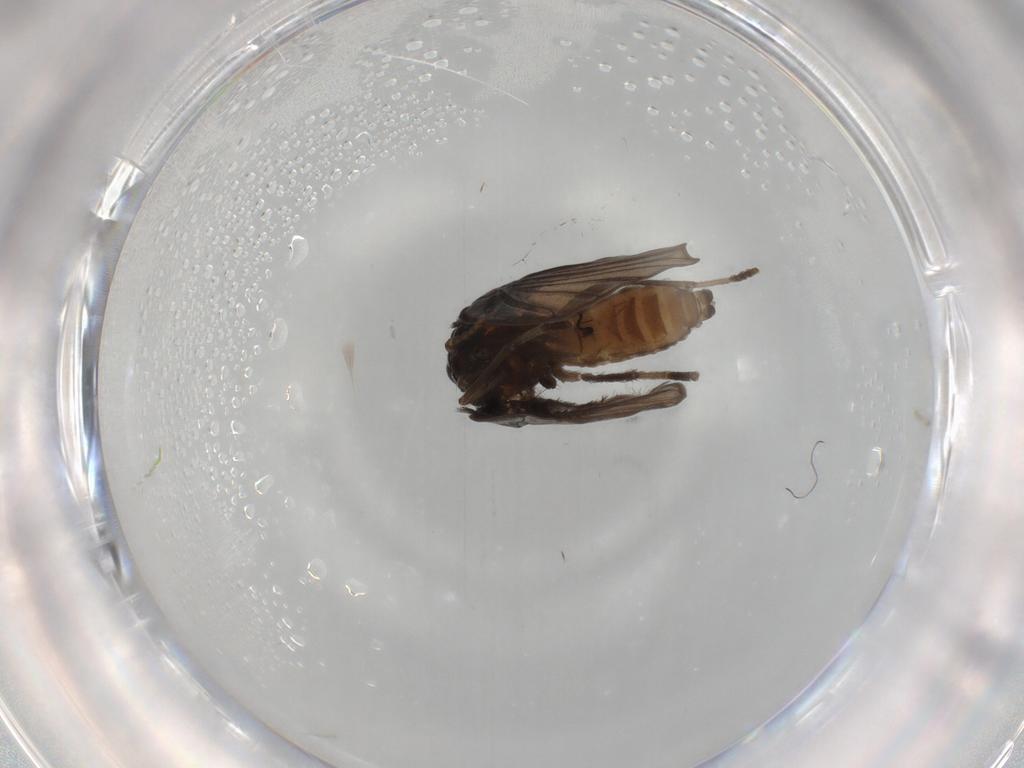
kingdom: Animalia
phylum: Arthropoda
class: Insecta
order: Diptera
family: Psychodidae
